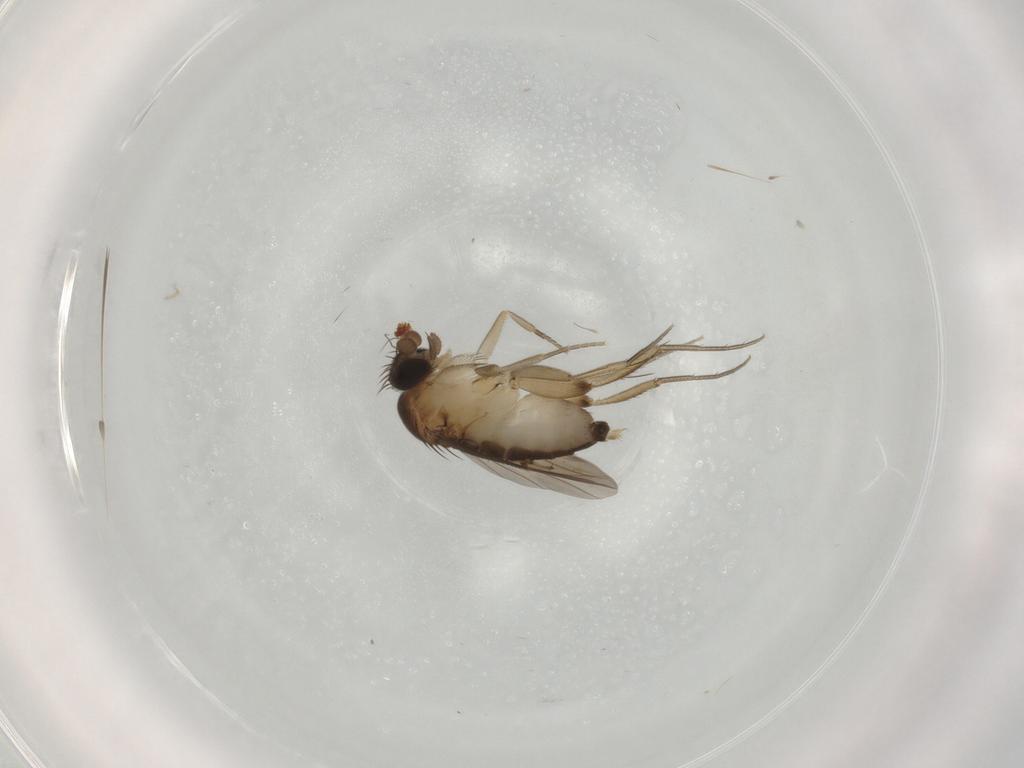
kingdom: Animalia
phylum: Arthropoda
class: Insecta
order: Diptera
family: Phoridae
